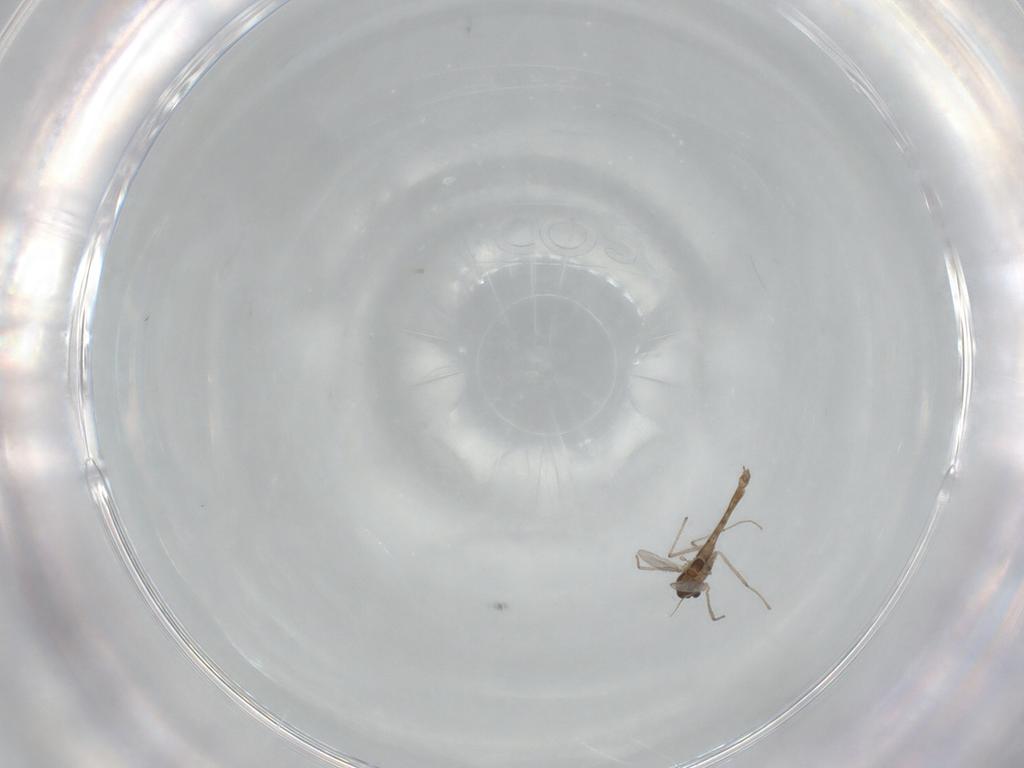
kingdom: Animalia
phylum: Arthropoda
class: Insecta
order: Diptera
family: Chironomidae
